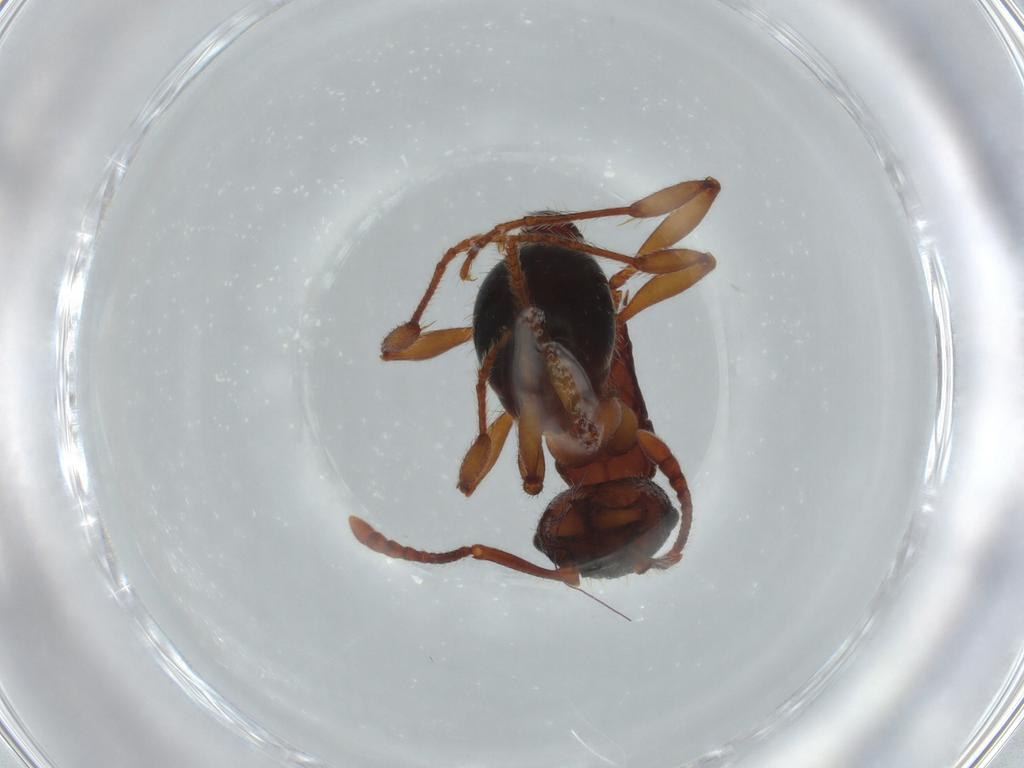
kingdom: Animalia
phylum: Arthropoda
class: Insecta
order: Hymenoptera
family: Formicidae
